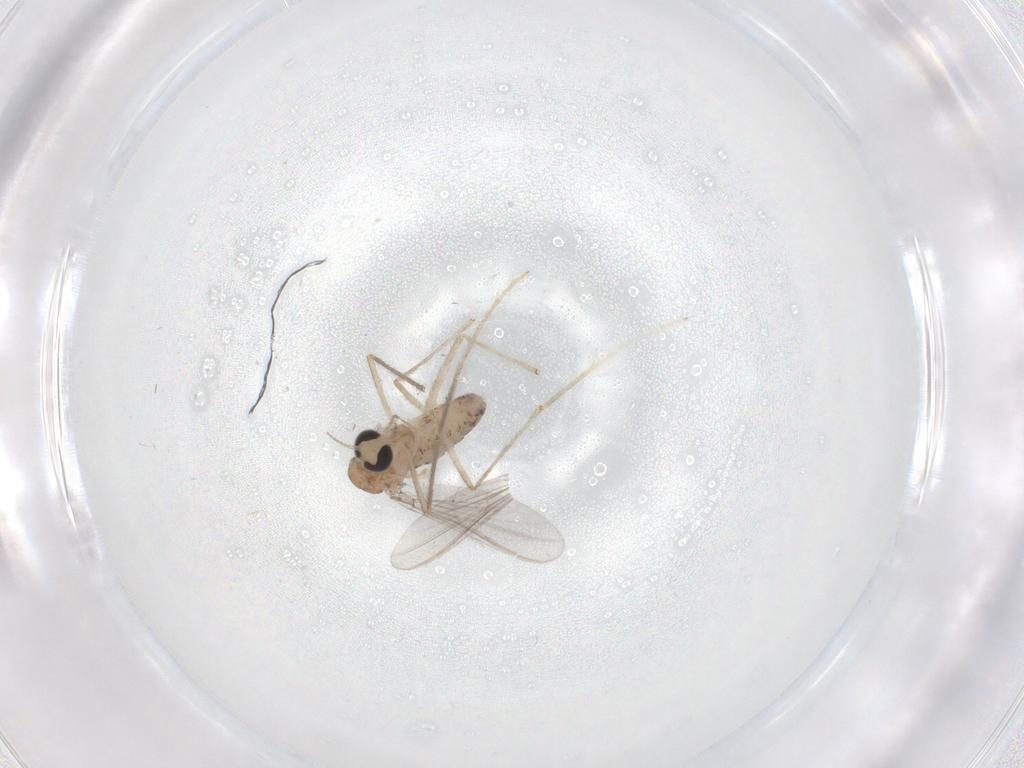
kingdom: Animalia
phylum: Arthropoda
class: Insecta
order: Diptera
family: Chironomidae
